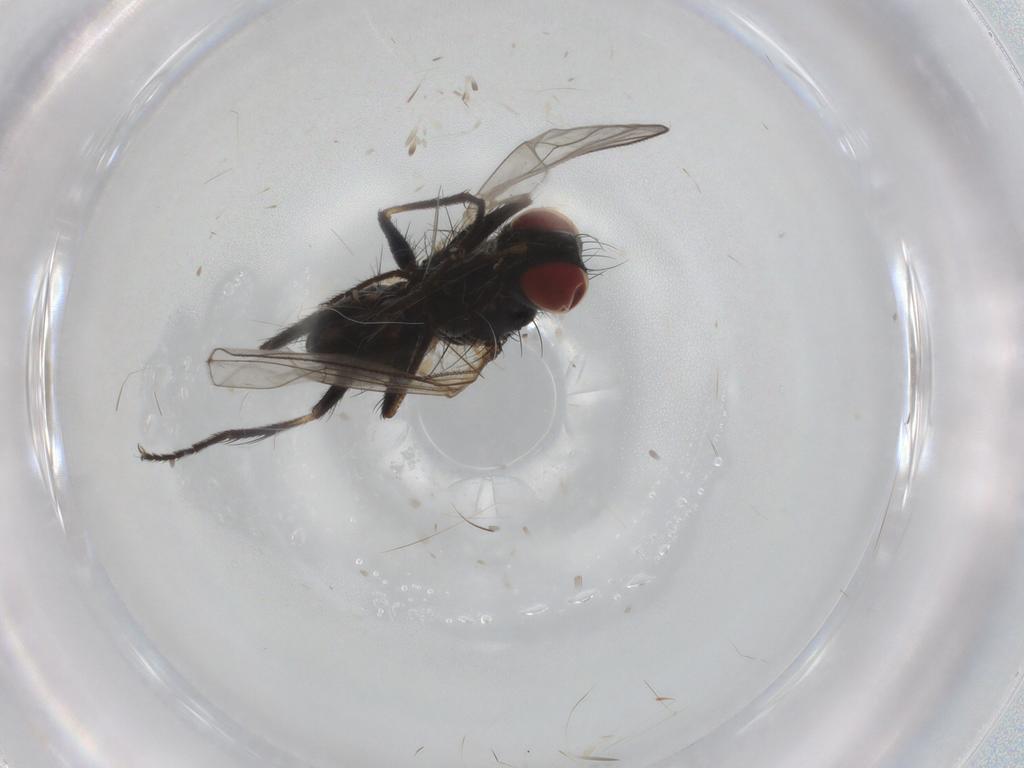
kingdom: Animalia
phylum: Arthropoda
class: Insecta
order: Diptera
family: Muscidae
